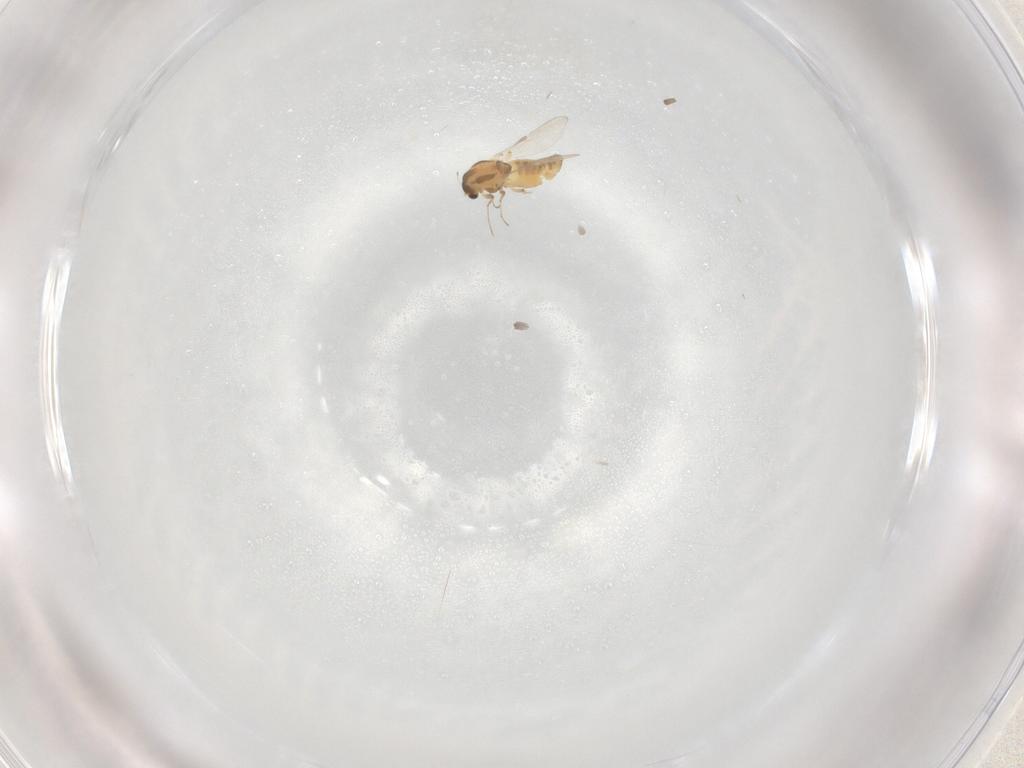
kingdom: Animalia
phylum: Arthropoda
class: Insecta
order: Diptera
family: Chironomidae
